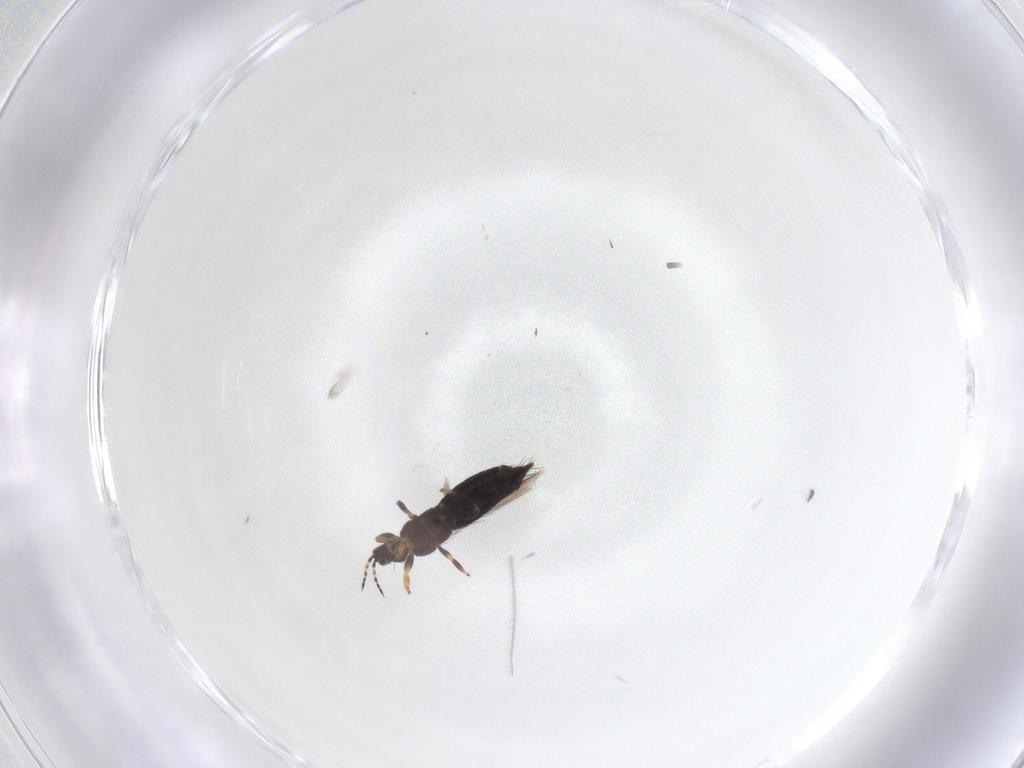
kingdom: Animalia
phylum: Arthropoda
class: Insecta
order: Thysanoptera
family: Thripidae
